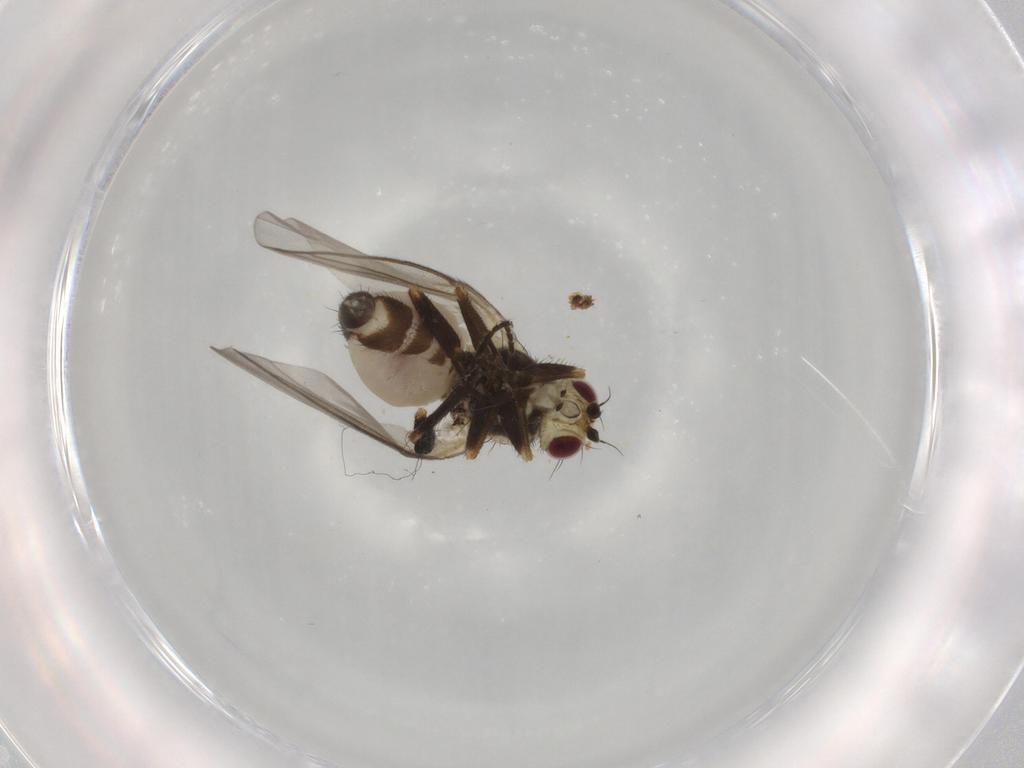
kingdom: Animalia
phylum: Arthropoda
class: Insecta
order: Diptera
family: Agromyzidae
